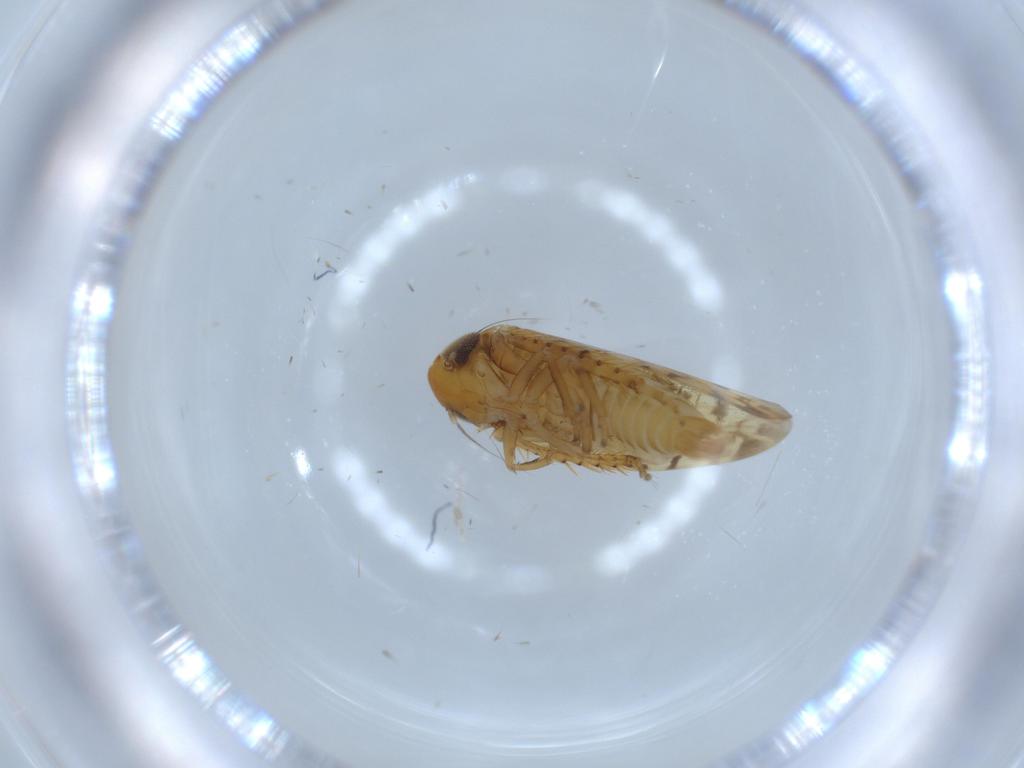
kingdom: Animalia
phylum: Arthropoda
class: Insecta
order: Hemiptera
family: Cicadellidae
